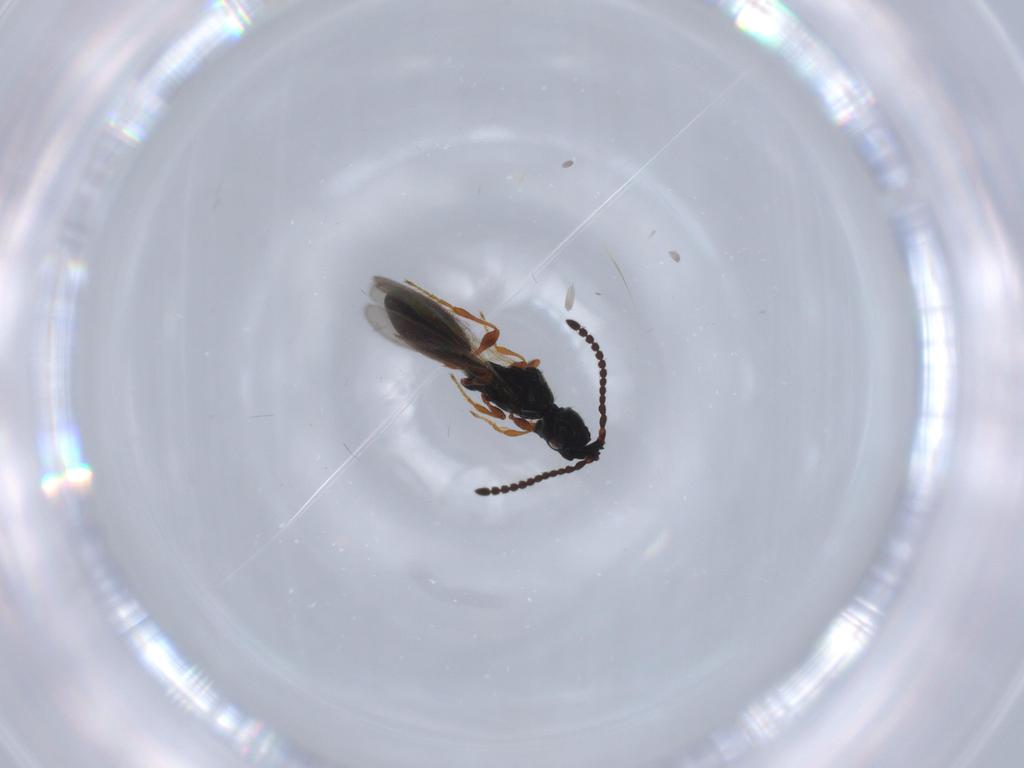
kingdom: Animalia
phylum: Arthropoda
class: Insecta
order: Hymenoptera
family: Diapriidae
